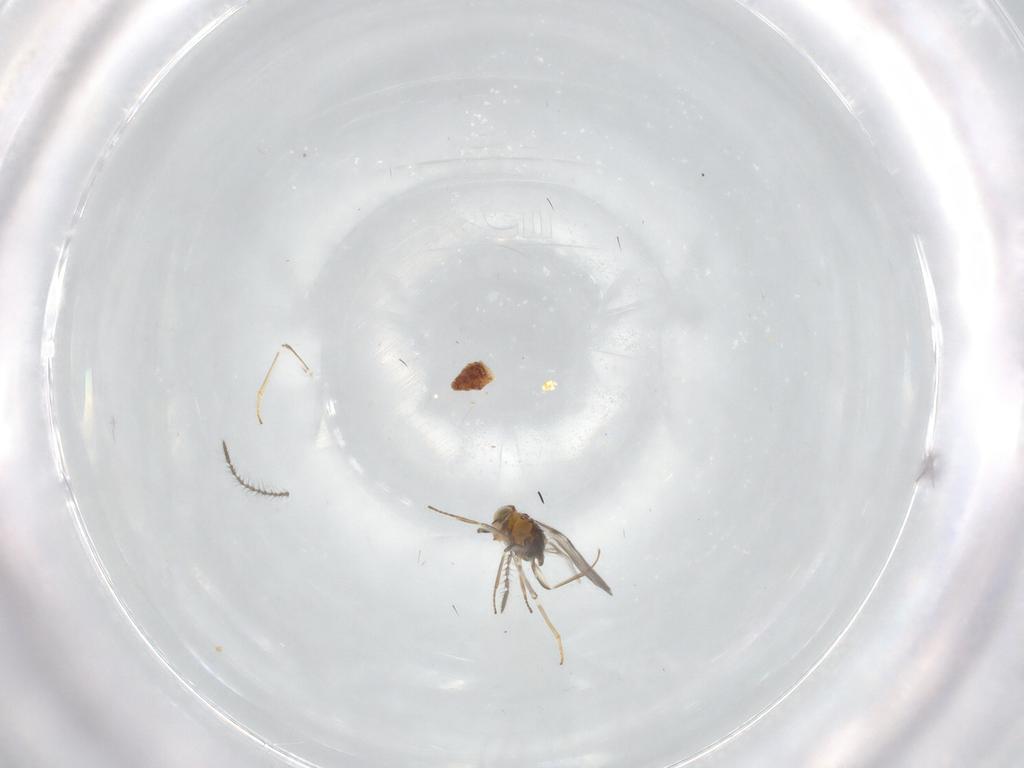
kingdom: Animalia
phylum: Arthropoda
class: Insecta
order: Hymenoptera
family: Encyrtidae
